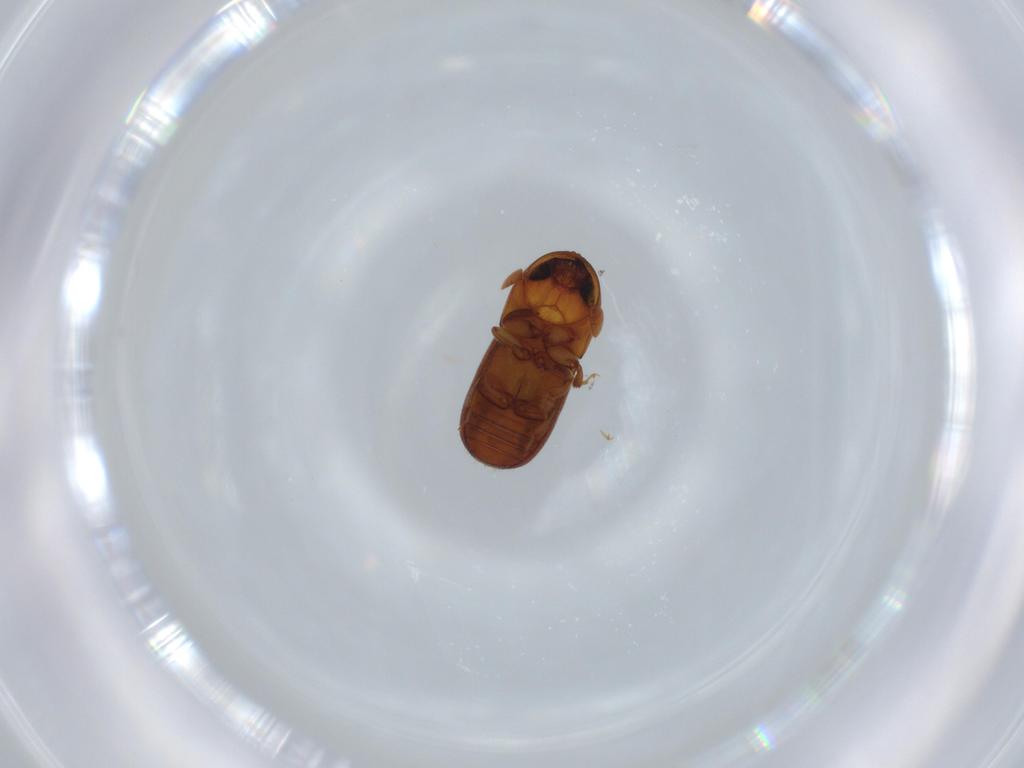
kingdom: Animalia
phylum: Arthropoda
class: Insecta
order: Coleoptera
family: Curculionidae
